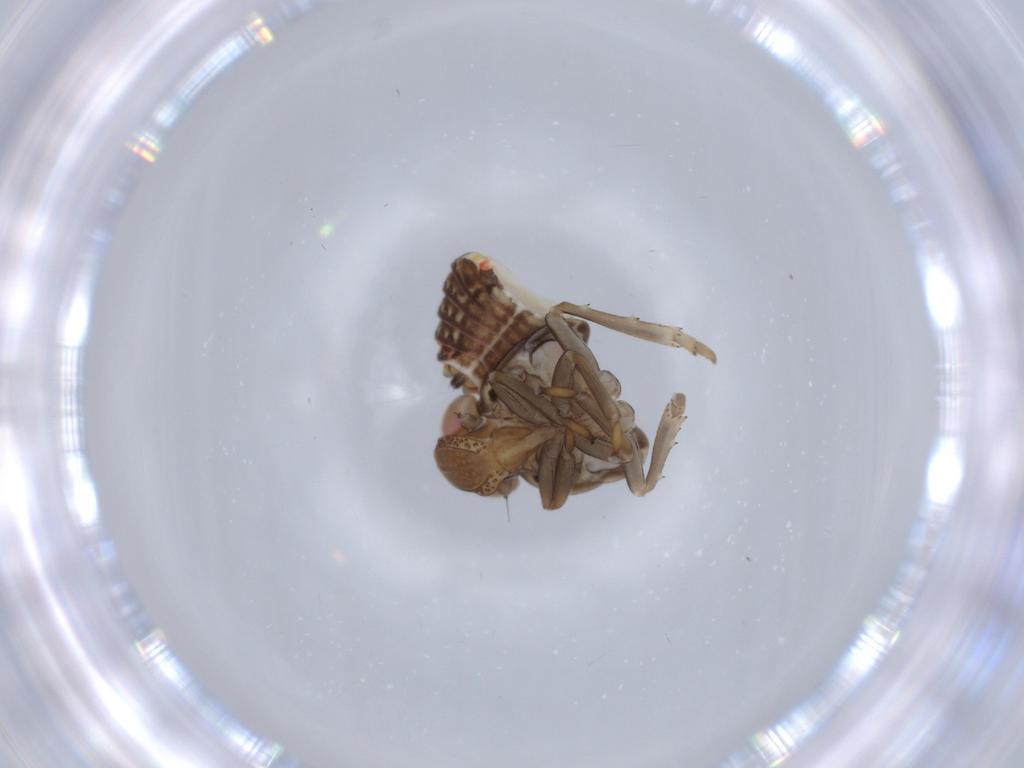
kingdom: Animalia
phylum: Arthropoda
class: Insecta
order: Hemiptera
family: Issidae
